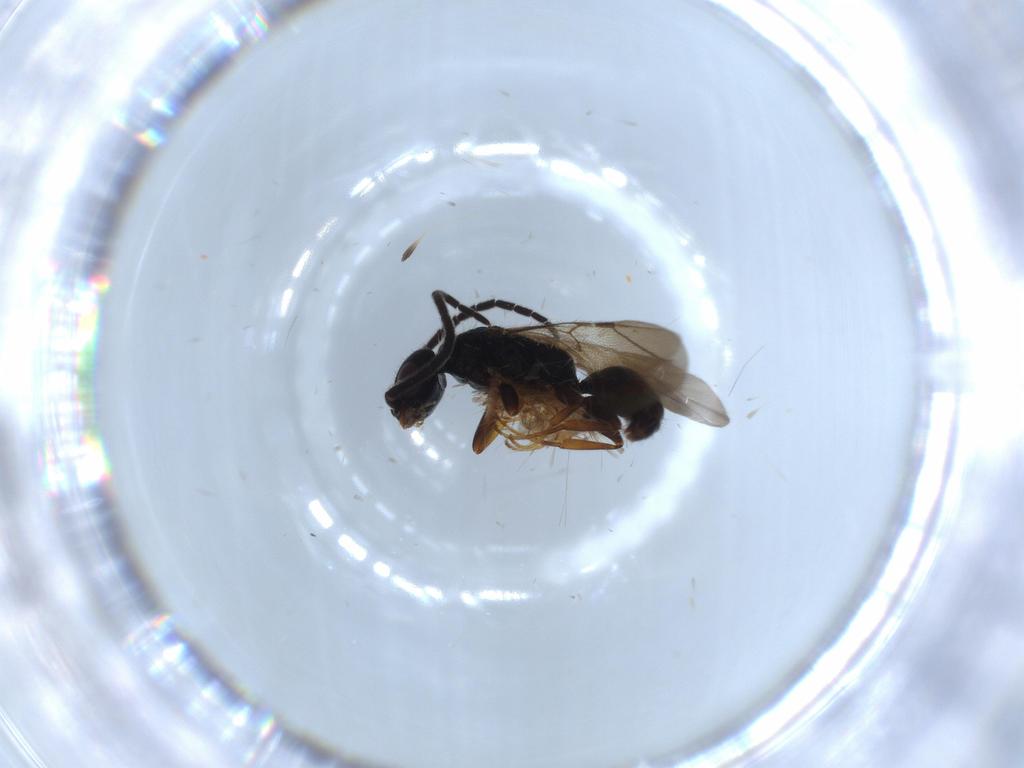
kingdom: Animalia
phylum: Arthropoda
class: Insecta
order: Hymenoptera
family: Bethylidae
